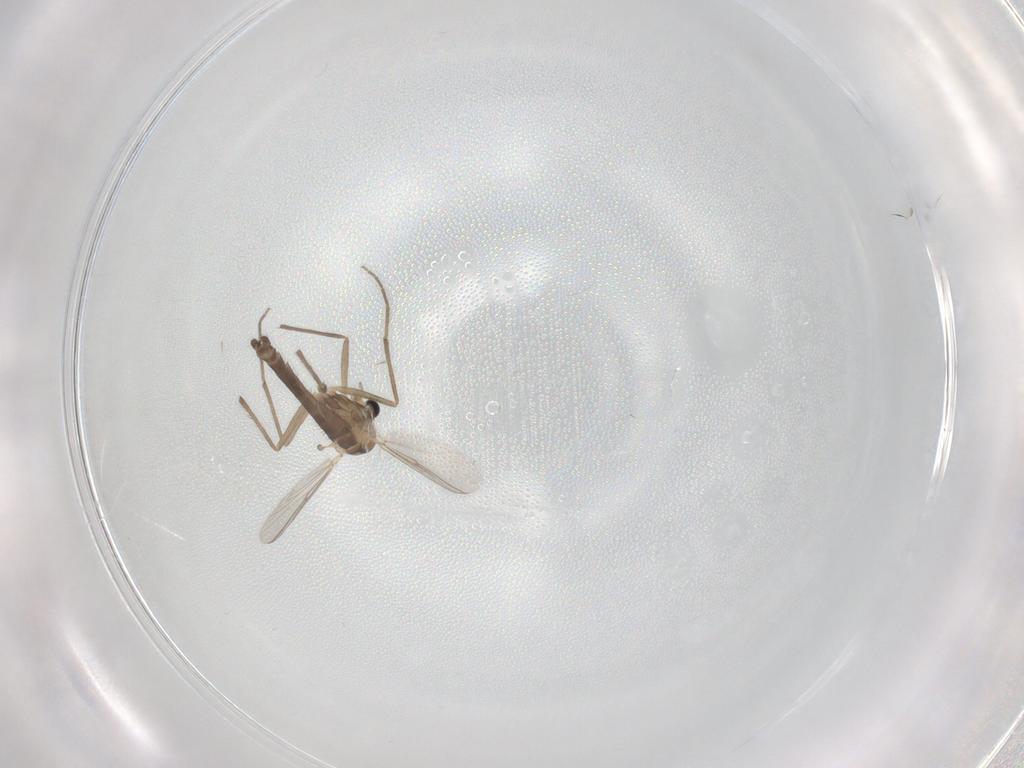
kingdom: Animalia
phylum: Arthropoda
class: Insecta
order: Diptera
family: Chironomidae
